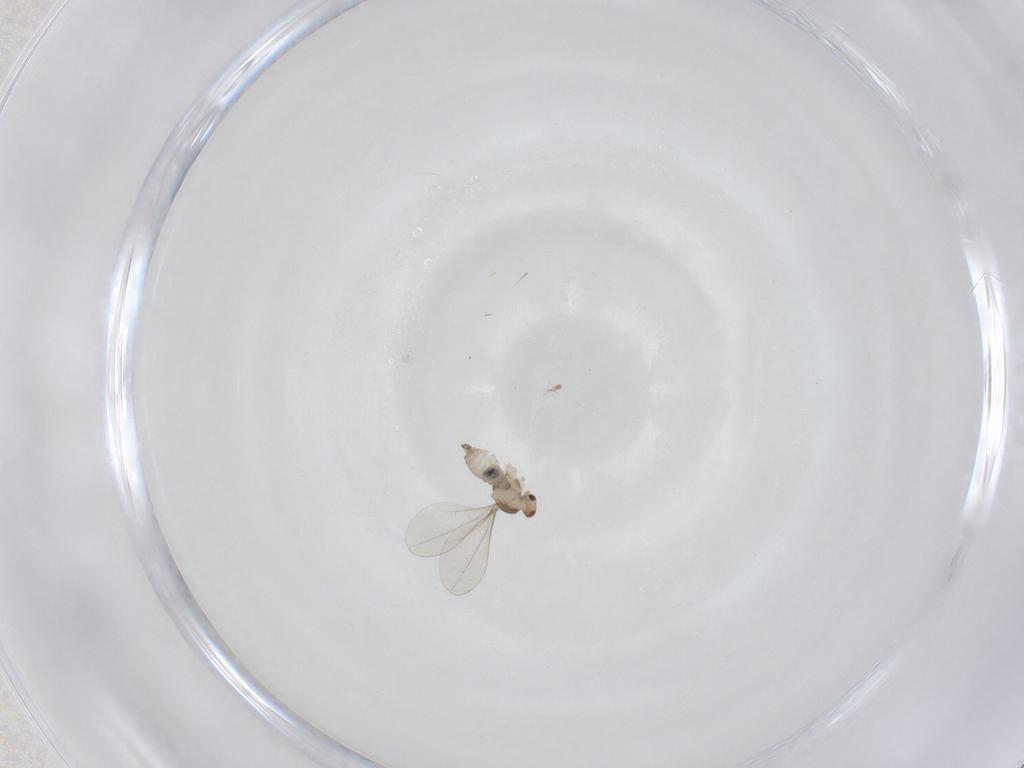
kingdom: Animalia
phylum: Arthropoda
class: Insecta
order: Diptera
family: Cecidomyiidae
